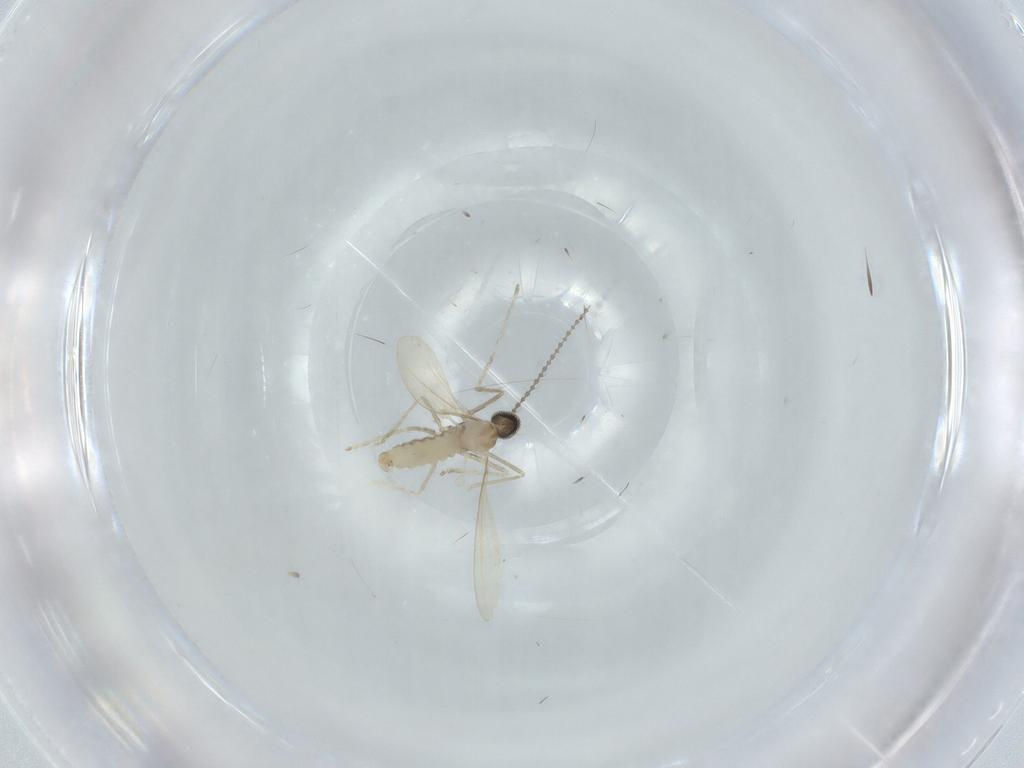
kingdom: Animalia
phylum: Arthropoda
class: Insecta
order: Diptera
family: Cecidomyiidae
